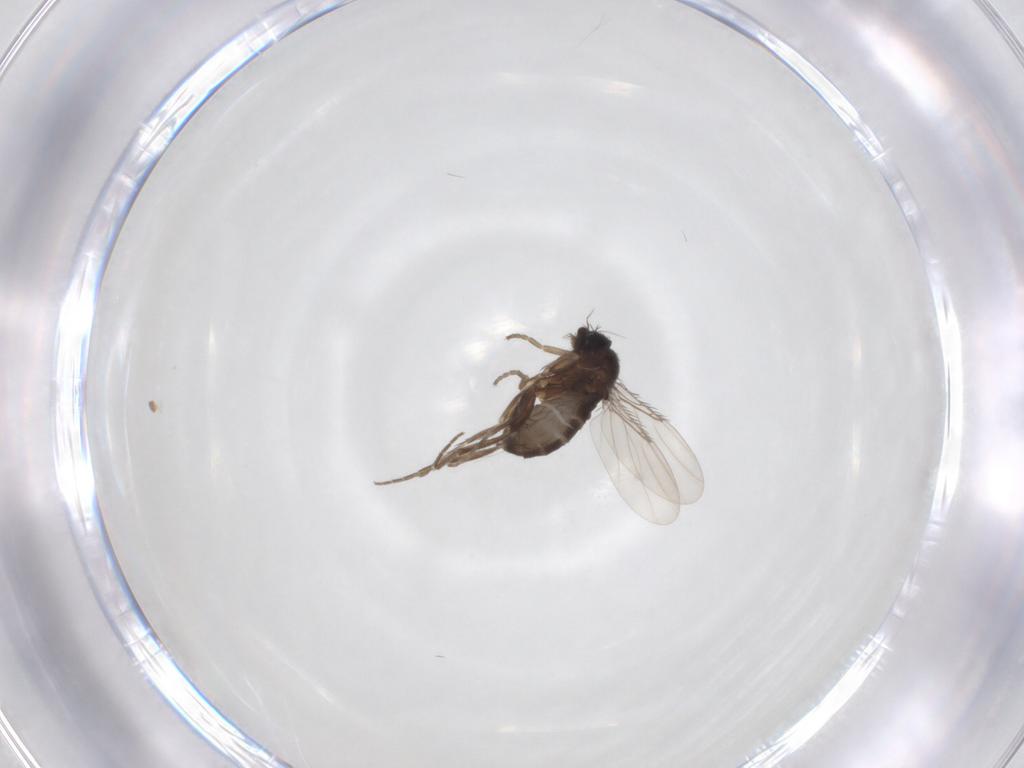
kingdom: Animalia
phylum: Arthropoda
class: Insecta
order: Diptera
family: Phoridae
